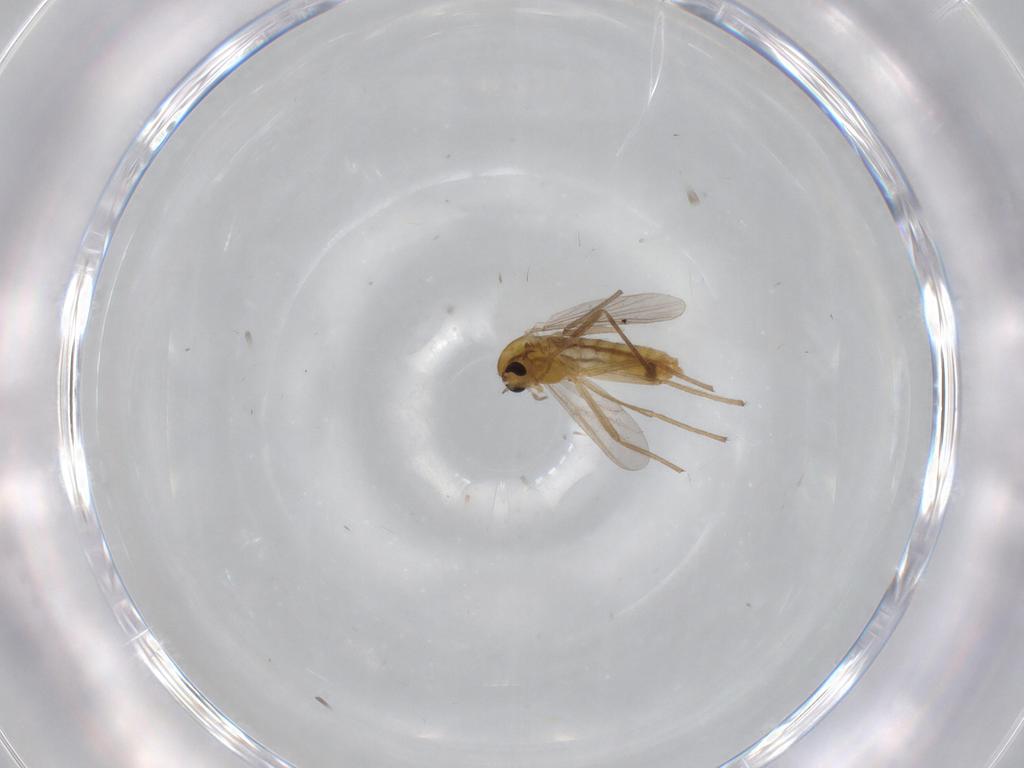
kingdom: Animalia
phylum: Arthropoda
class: Insecta
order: Diptera
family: Chironomidae
